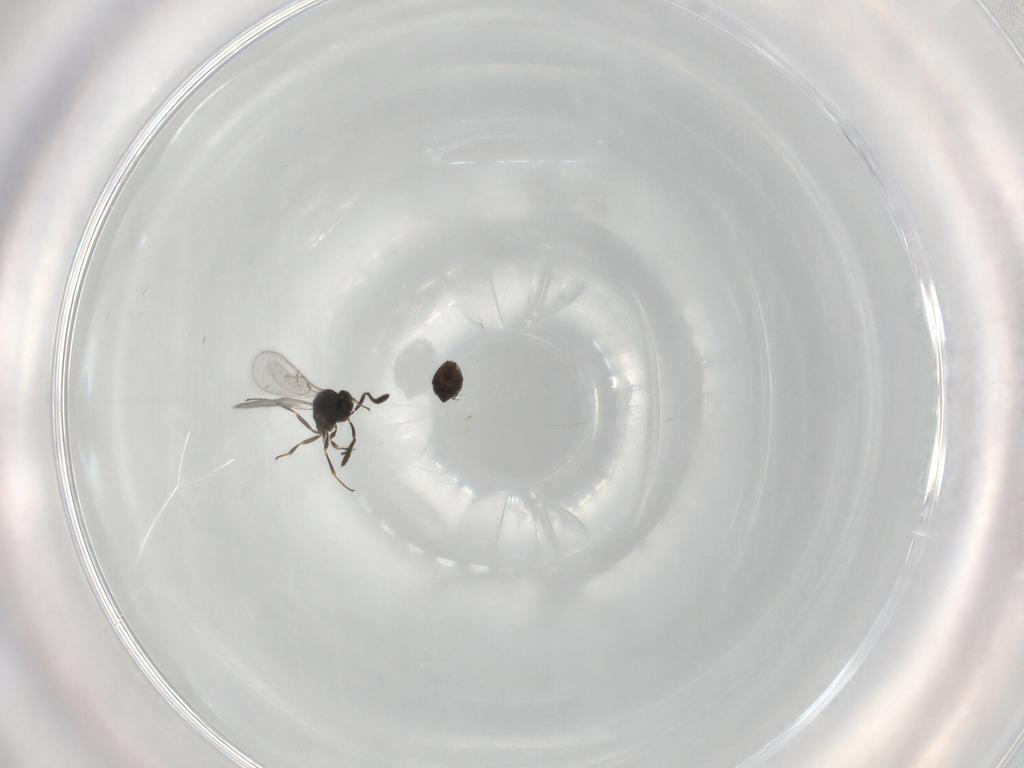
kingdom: Animalia
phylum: Arthropoda
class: Insecta
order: Hymenoptera
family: Scelionidae
